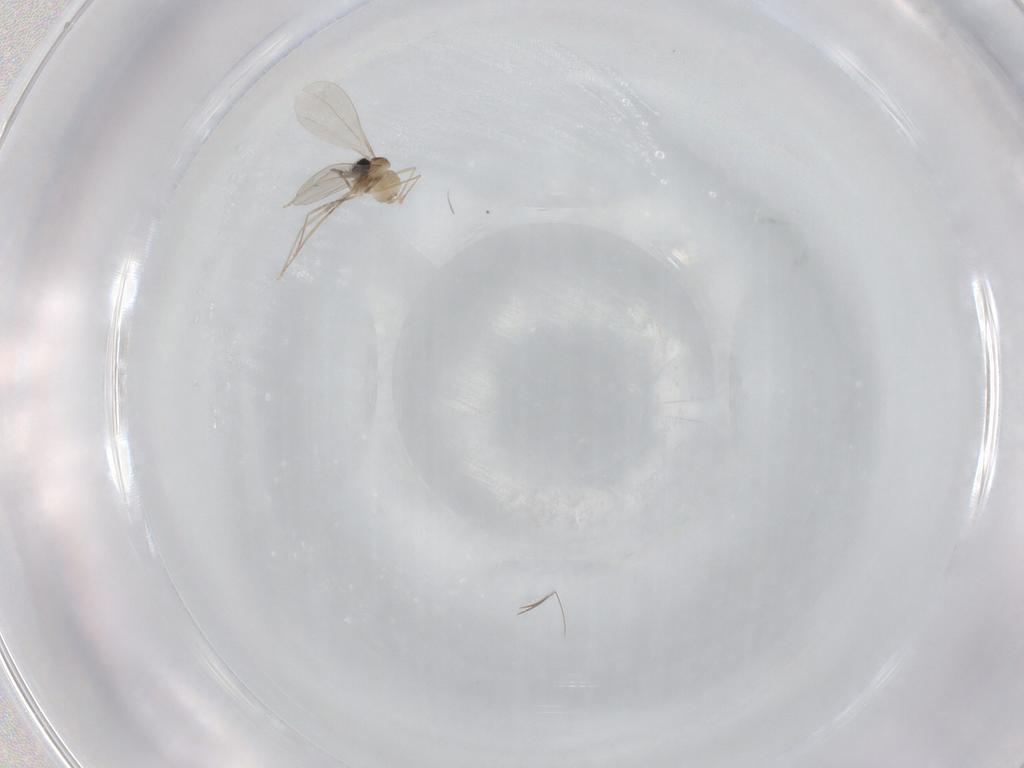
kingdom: Animalia
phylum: Arthropoda
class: Insecta
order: Diptera
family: Cecidomyiidae
